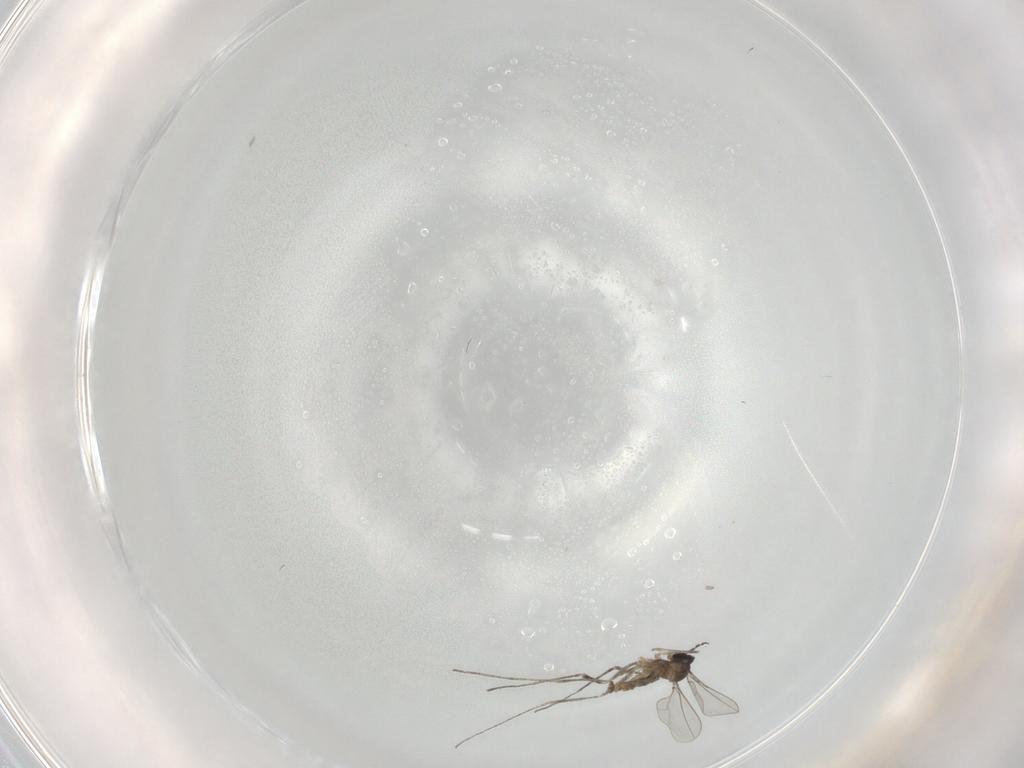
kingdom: Animalia
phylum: Arthropoda
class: Insecta
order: Diptera
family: Cecidomyiidae
